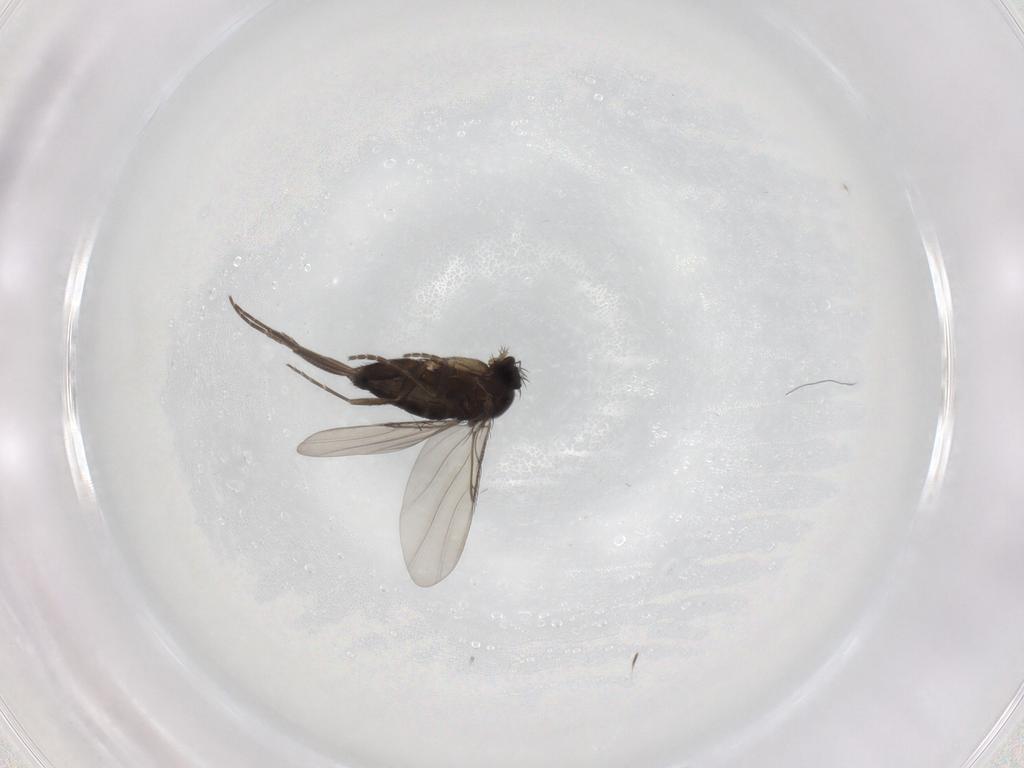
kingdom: Animalia
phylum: Arthropoda
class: Insecta
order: Diptera
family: Phoridae
